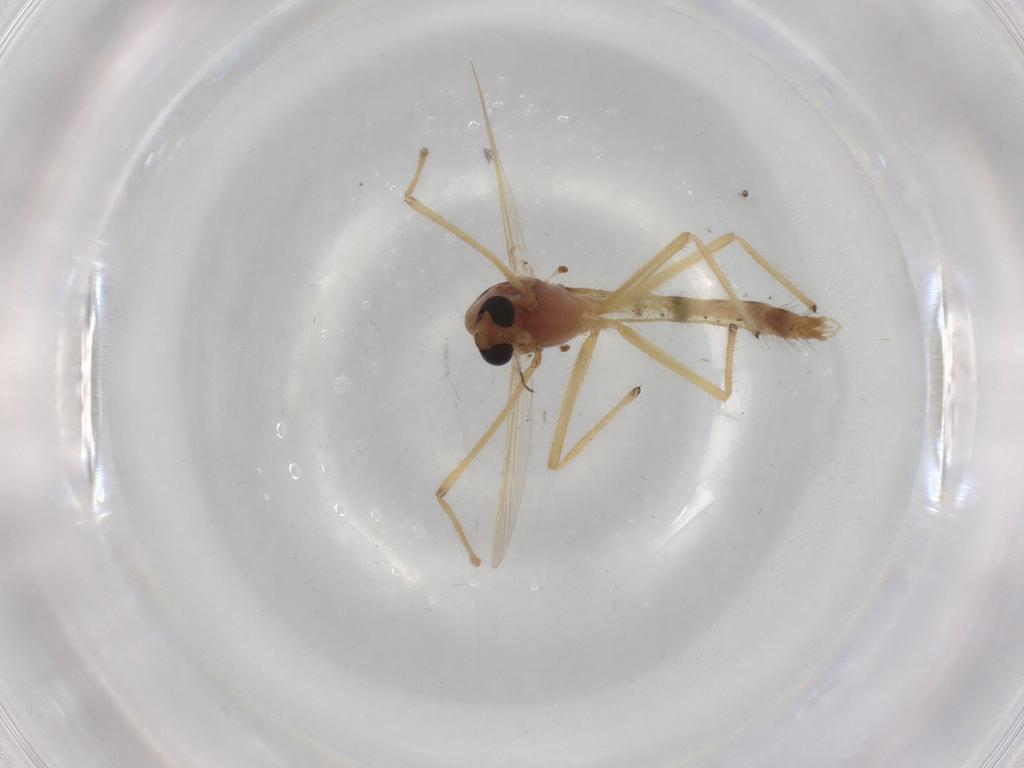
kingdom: Animalia
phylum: Arthropoda
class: Insecta
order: Diptera
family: Chironomidae
